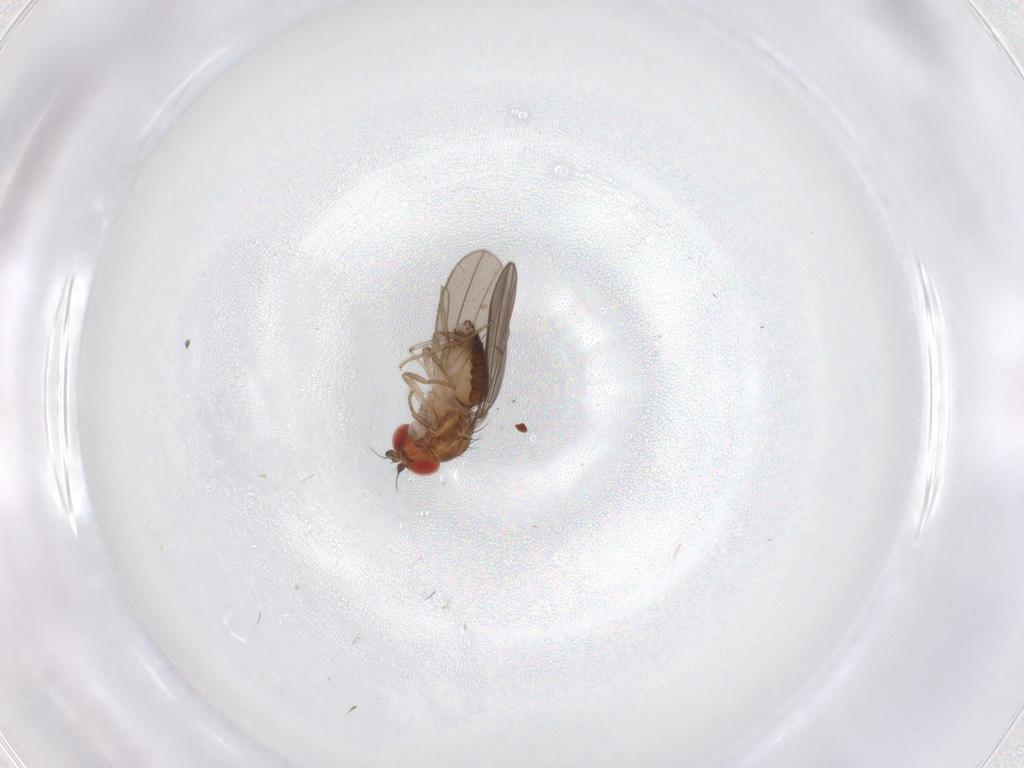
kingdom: Animalia
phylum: Arthropoda
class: Insecta
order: Diptera
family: Drosophilidae
